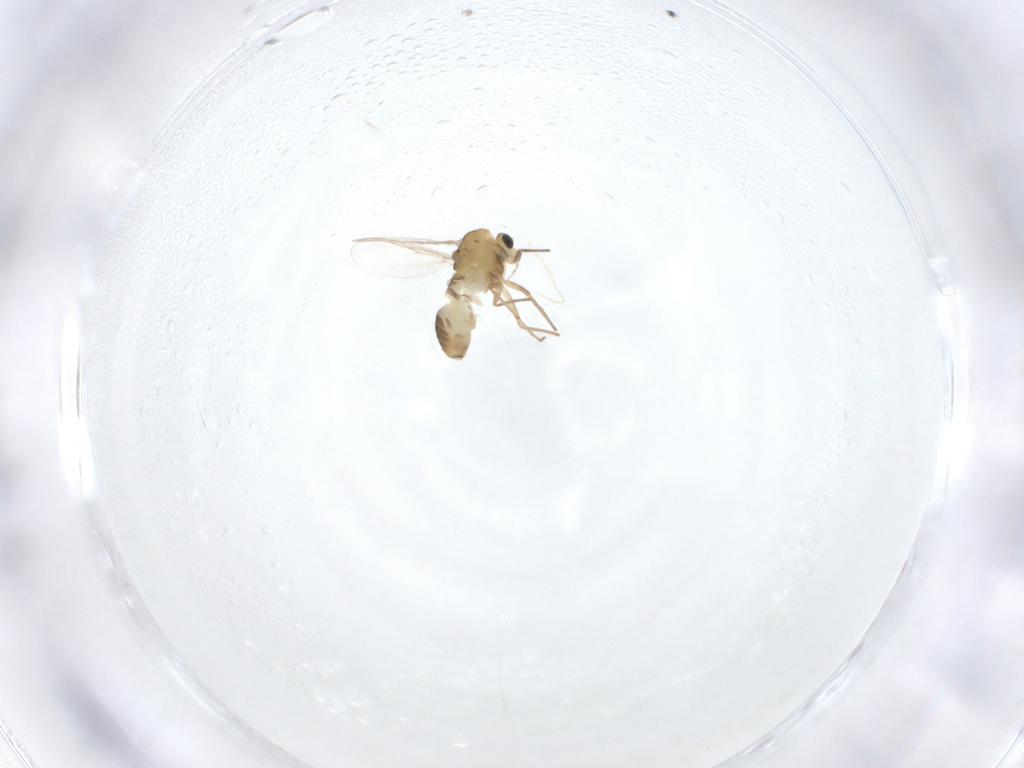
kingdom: Animalia
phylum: Arthropoda
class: Insecta
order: Diptera
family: Chironomidae
